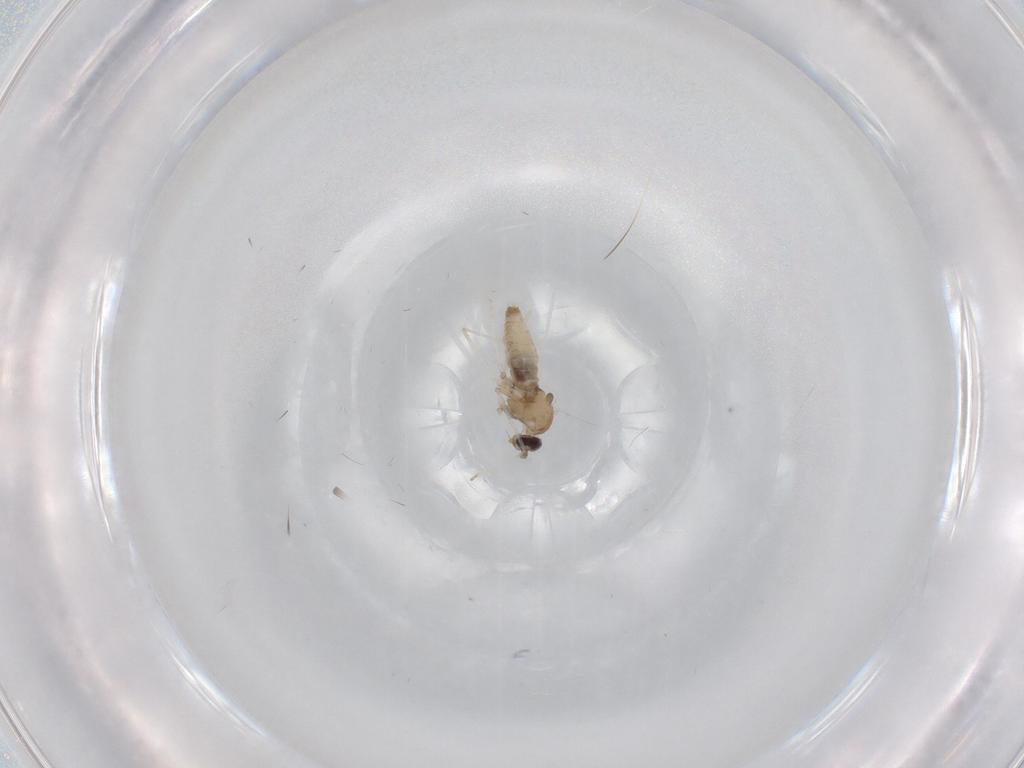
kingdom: Animalia
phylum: Arthropoda
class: Insecta
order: Diptera
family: Cecidomyiidae
